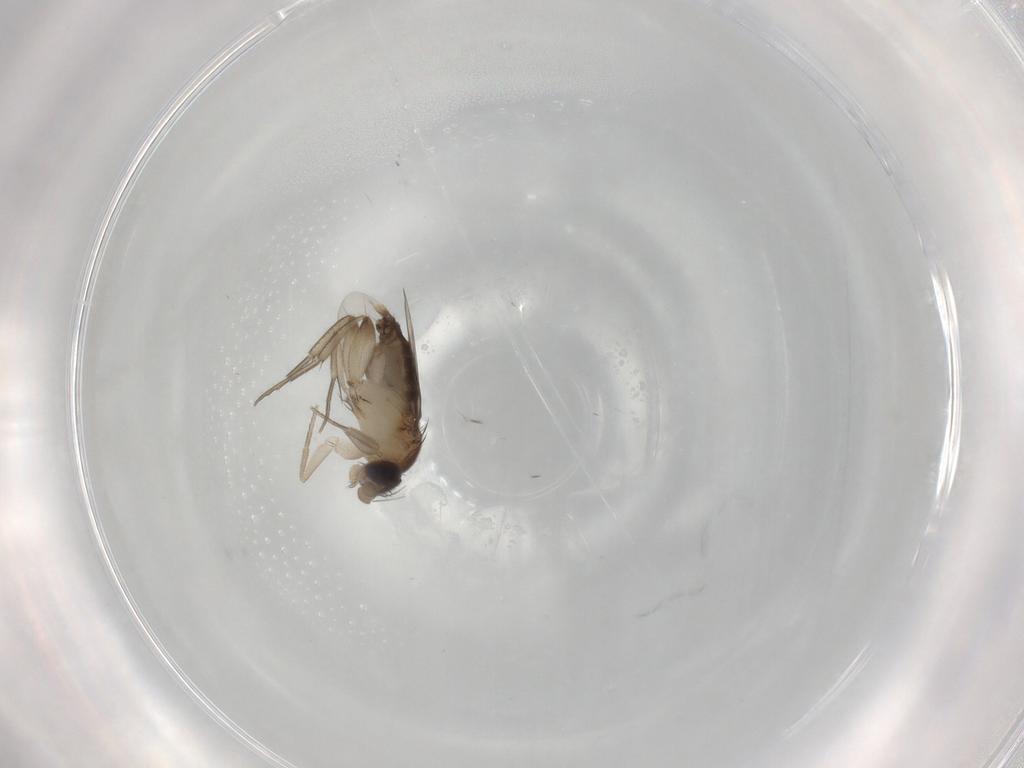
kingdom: Animalia
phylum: Arthropoda
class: Insecta
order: Diptera
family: Phoridae
